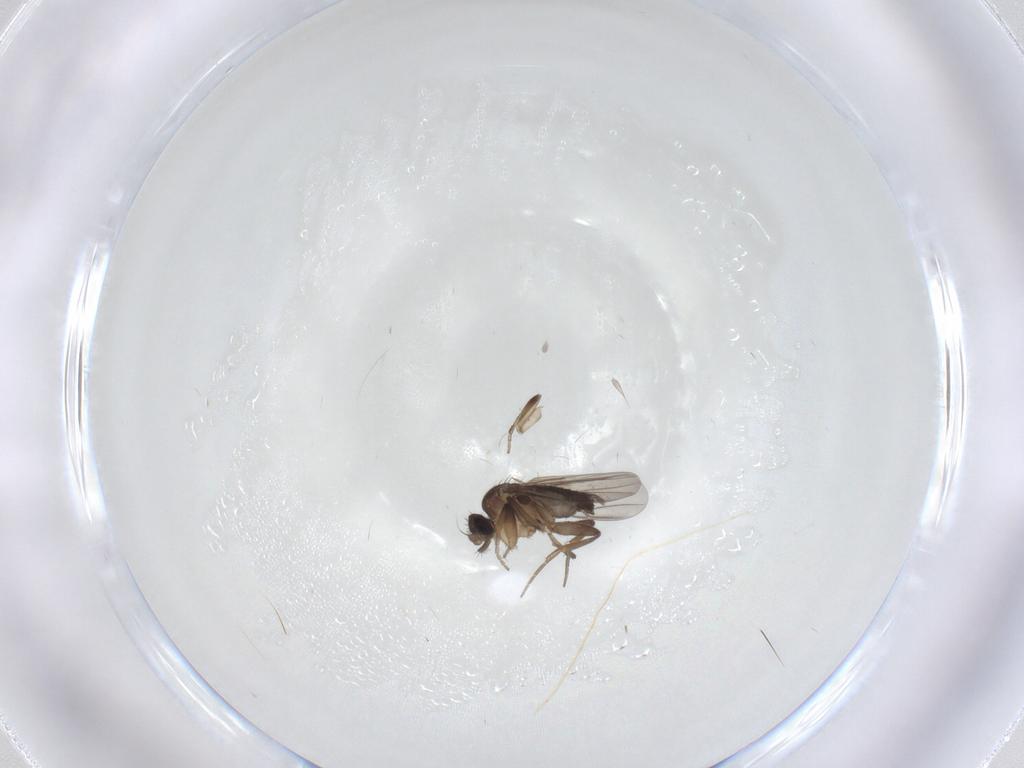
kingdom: Animalia
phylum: Arthropoda
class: Insecta
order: Diptera
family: Phoridae
